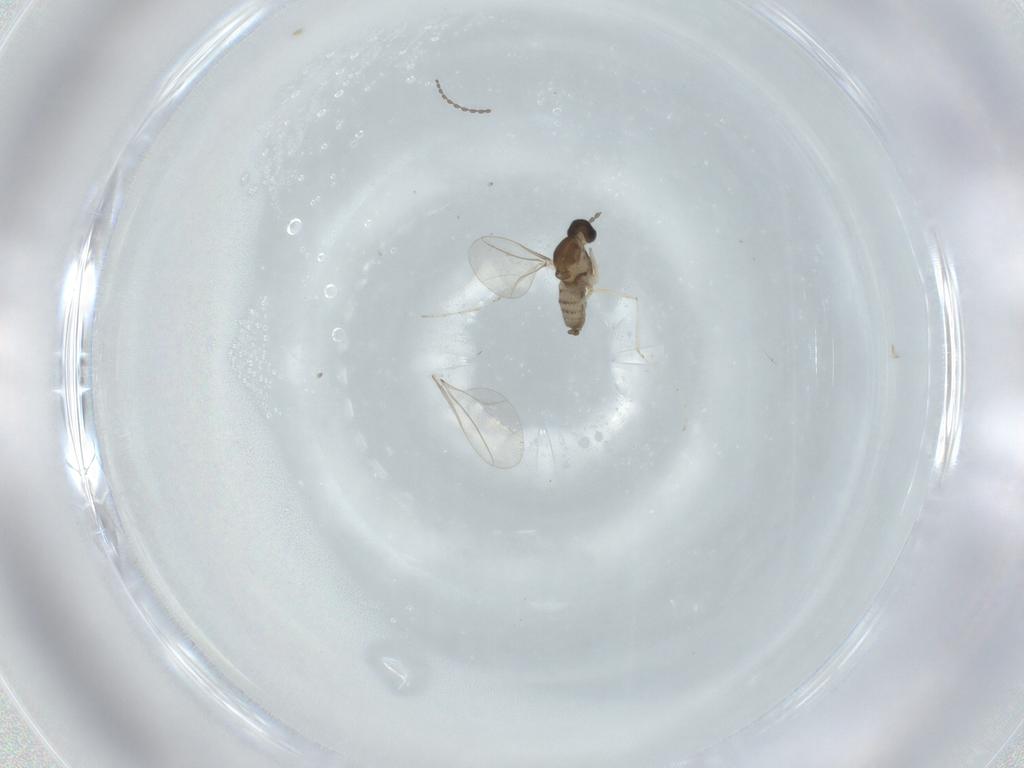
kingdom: Animalia
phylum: Arthropoda
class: Insecta
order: Diptera
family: Cecidomyiidae
